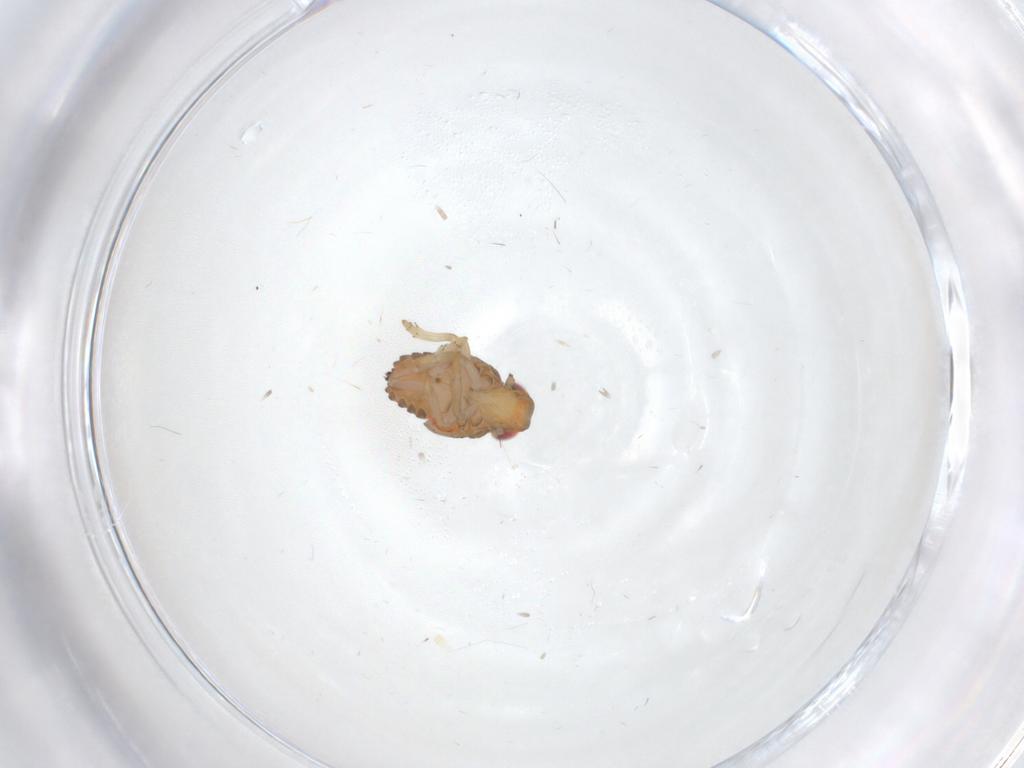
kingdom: Animalia
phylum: Arthropoda
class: Insecta
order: Hemiptera
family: Issidae
